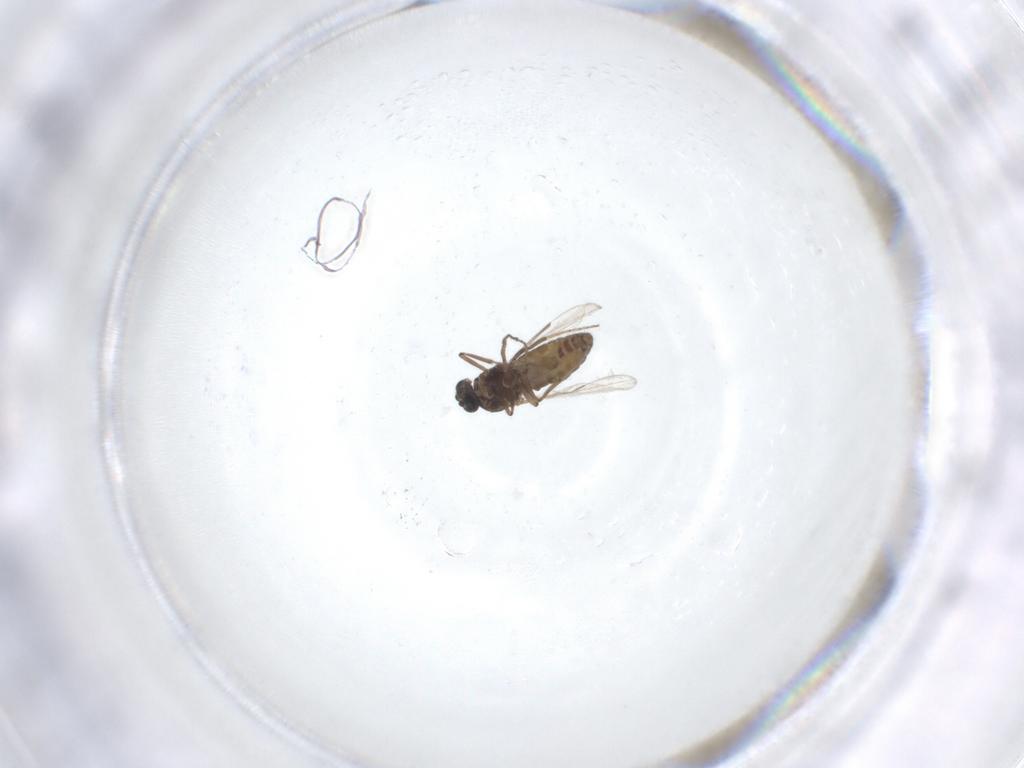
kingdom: Animalia
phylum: Arthropoda
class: Insecta
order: Diptera
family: Ceratopogonidae
